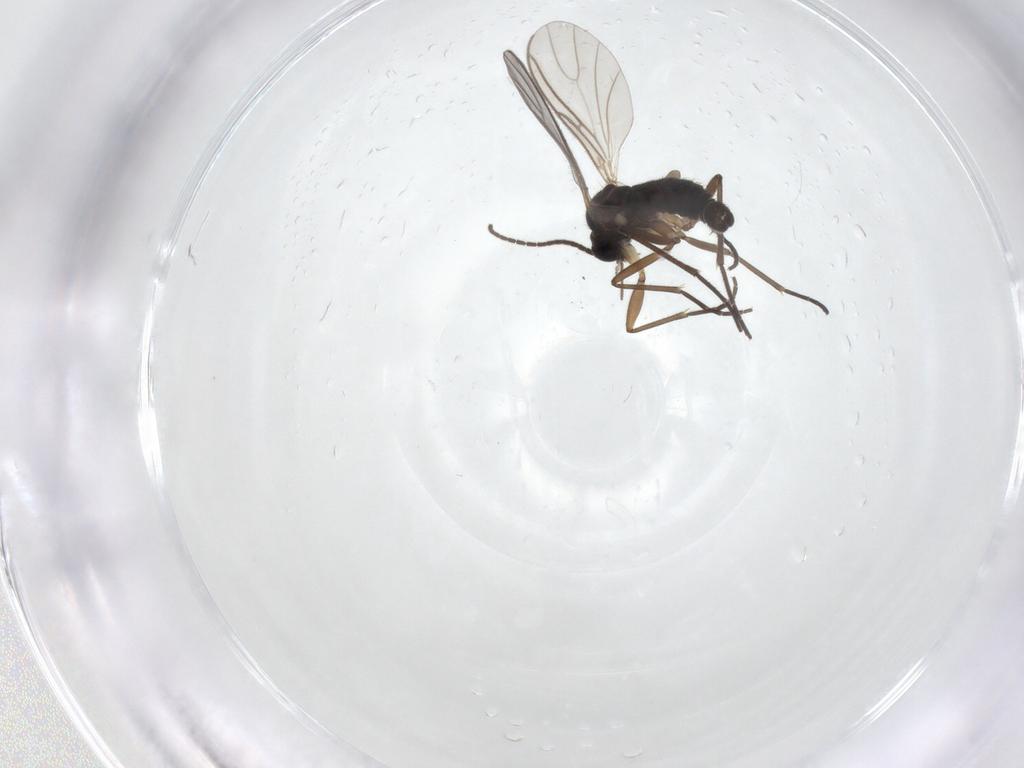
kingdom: Animalia
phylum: Arthropoda
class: Insecta
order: Diptera
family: Sciaridae
